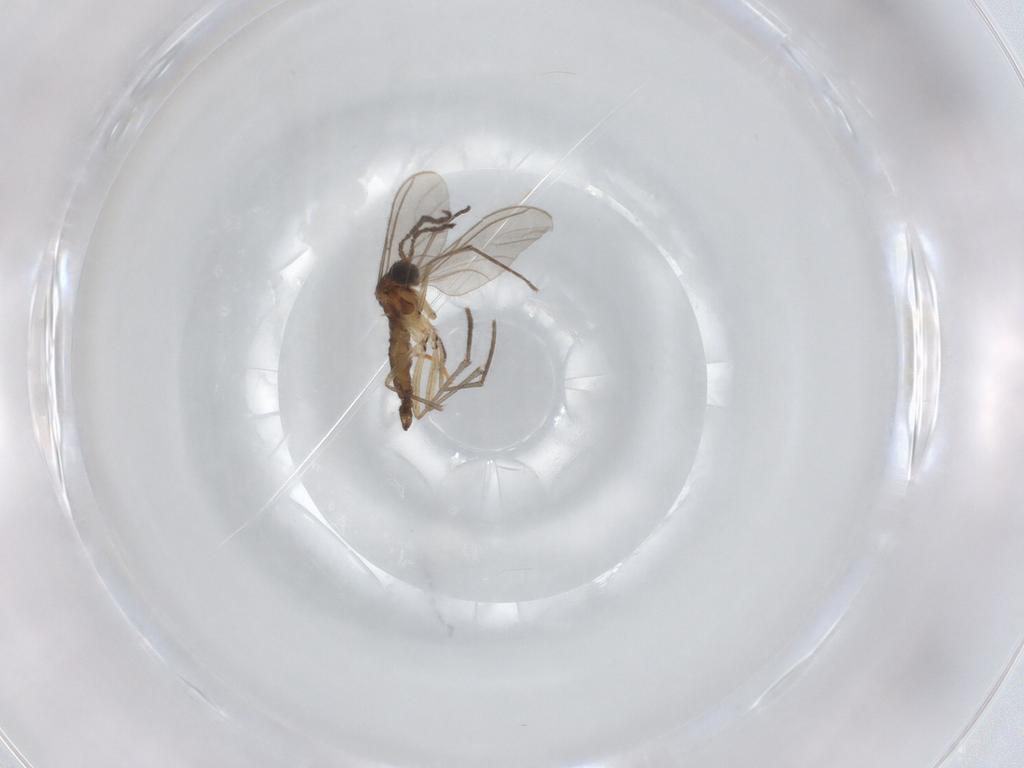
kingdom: Animalia
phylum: Arthropoda
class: Insecta
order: Diptera
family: Sciaridae
